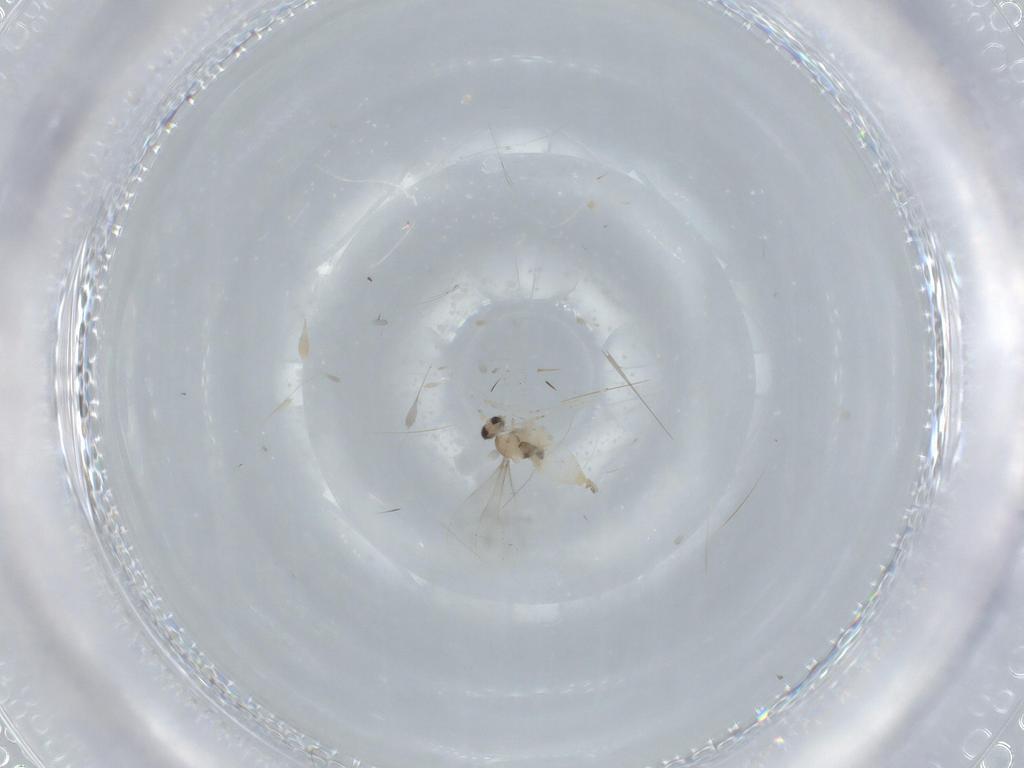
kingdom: Animalia
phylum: Arthropoda
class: Insecta
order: Diptera
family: Cecidomyiidae
